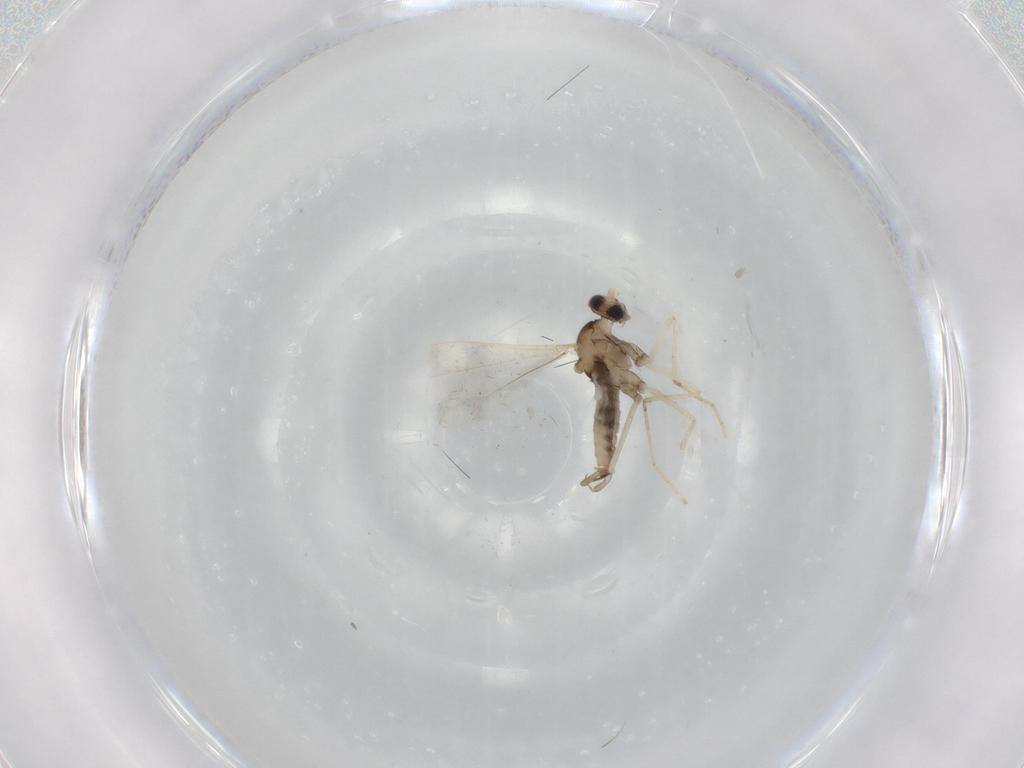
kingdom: Animalia
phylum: Arthropoda
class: Insecta
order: Diptera
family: Cecidomyiidae
